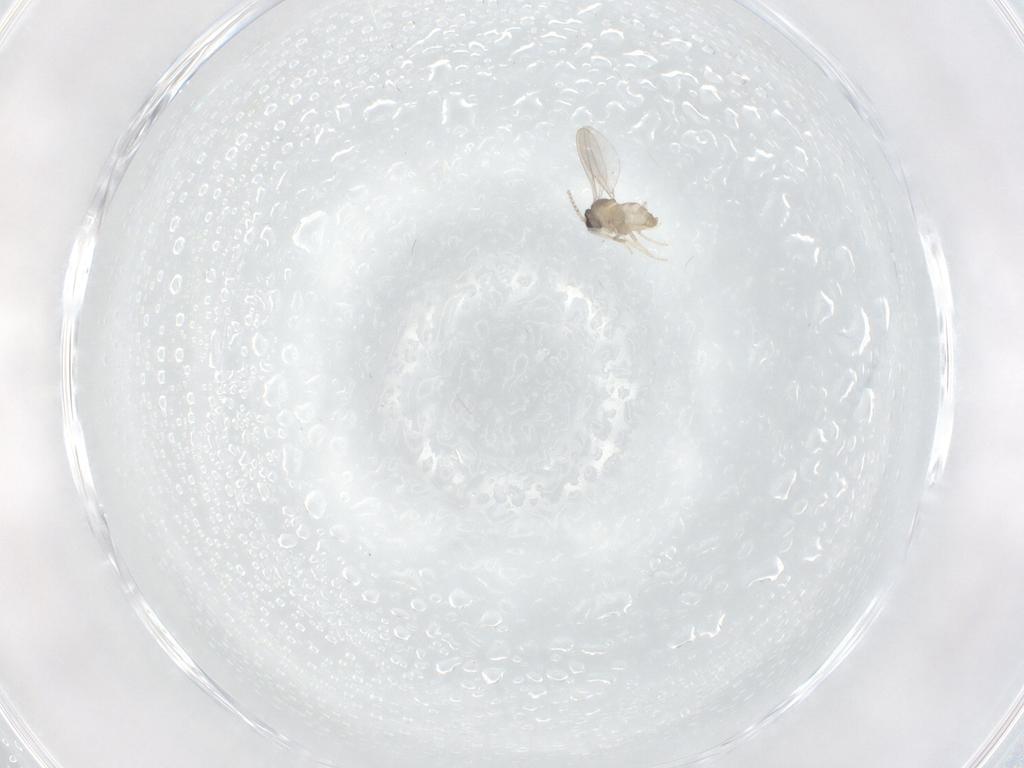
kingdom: Animalia
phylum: Arthropoda
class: Insecta
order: Diptera
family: Cecidomyiidae
